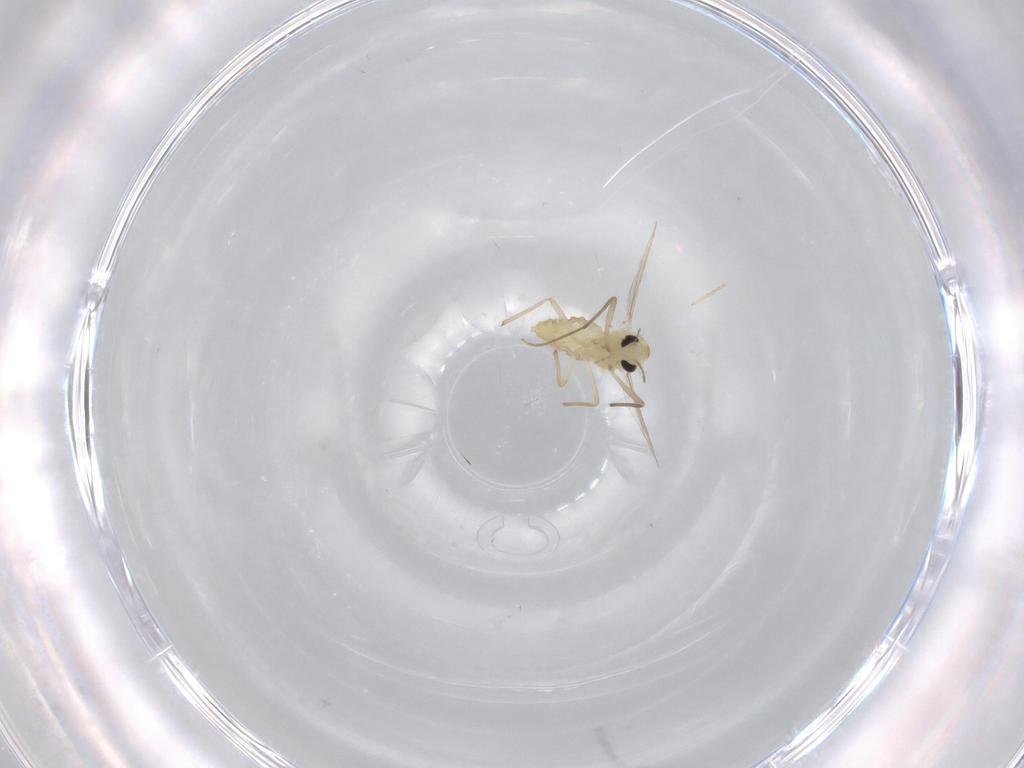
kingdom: Animalia
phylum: Arthropoda
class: Insecta
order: Diptera
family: Chironomidae
